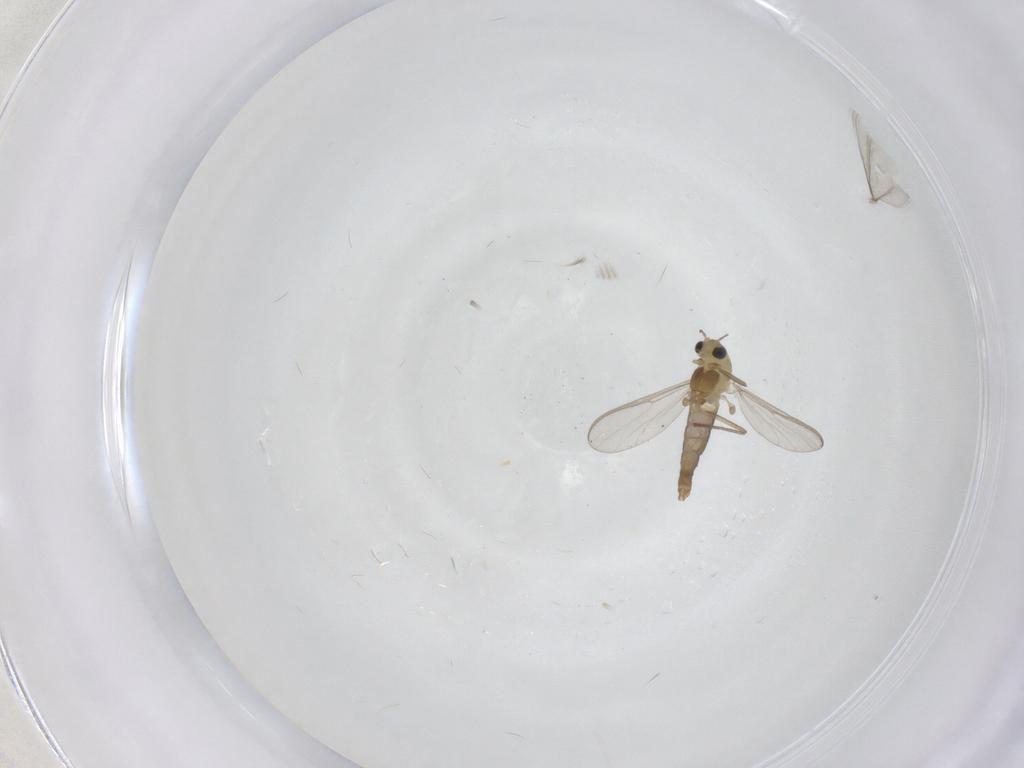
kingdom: Animalia
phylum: Arthropoda
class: Insecta
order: Diptera
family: Chironomidae
